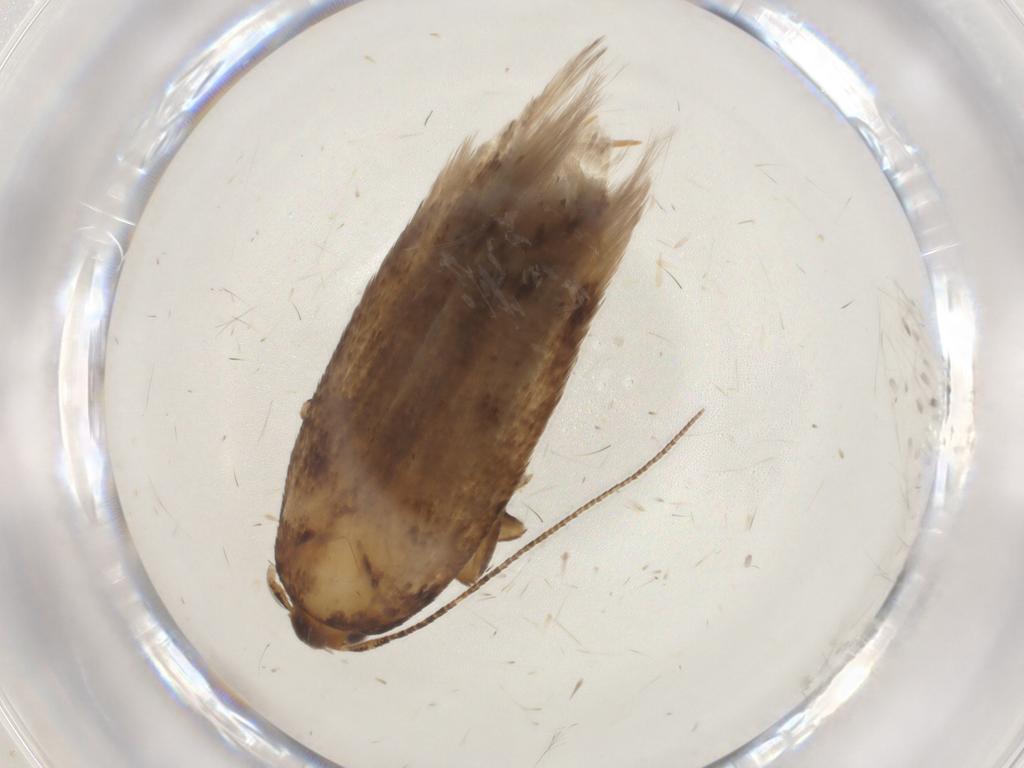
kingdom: Animalia
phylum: Arthropoda
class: Insecta
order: Lepidoptera
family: Gelechiidae
